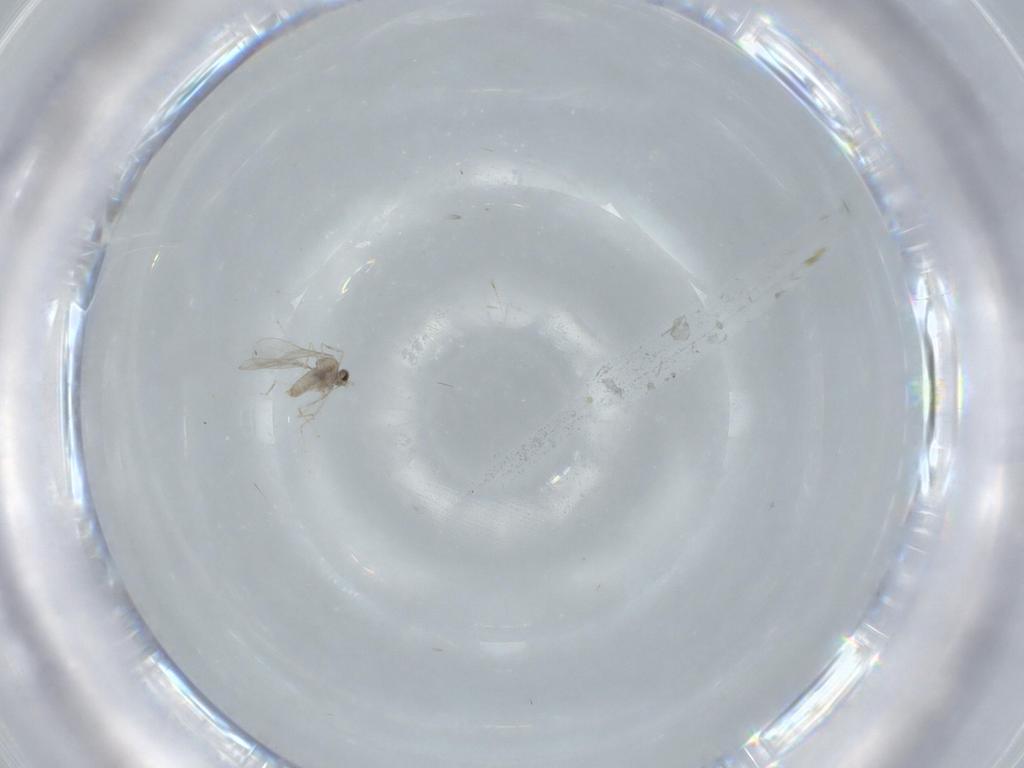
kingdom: Animalia
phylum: Arthropoda
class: Insecta
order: Diptera
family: Cecidomyiidae
